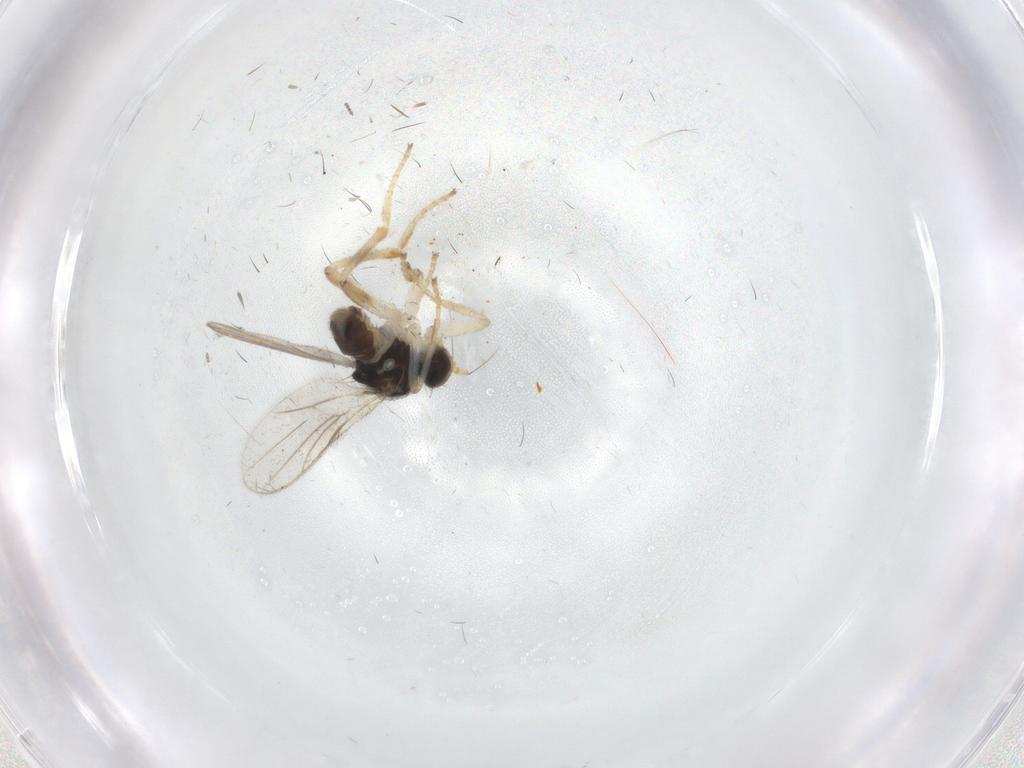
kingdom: Animalia
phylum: Arthropoda
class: Insecta
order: Diptera
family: Hybotidae
